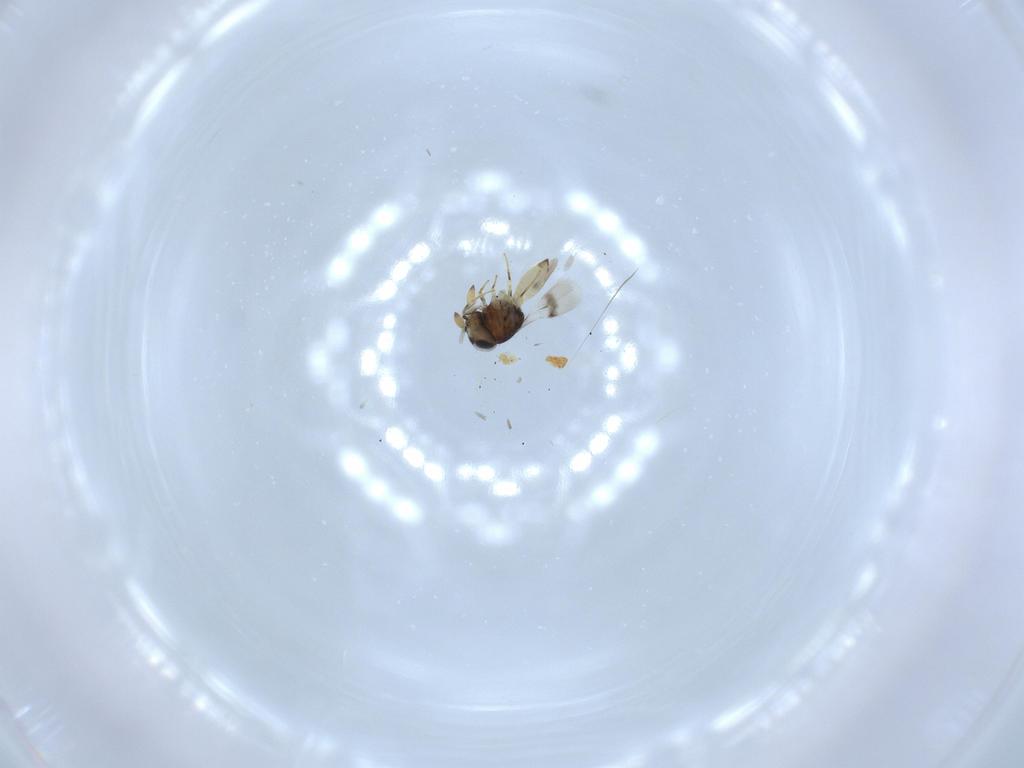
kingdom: Animalia
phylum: Arthropoda
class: Insecta
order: Hymenoptera
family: Scelionidae
